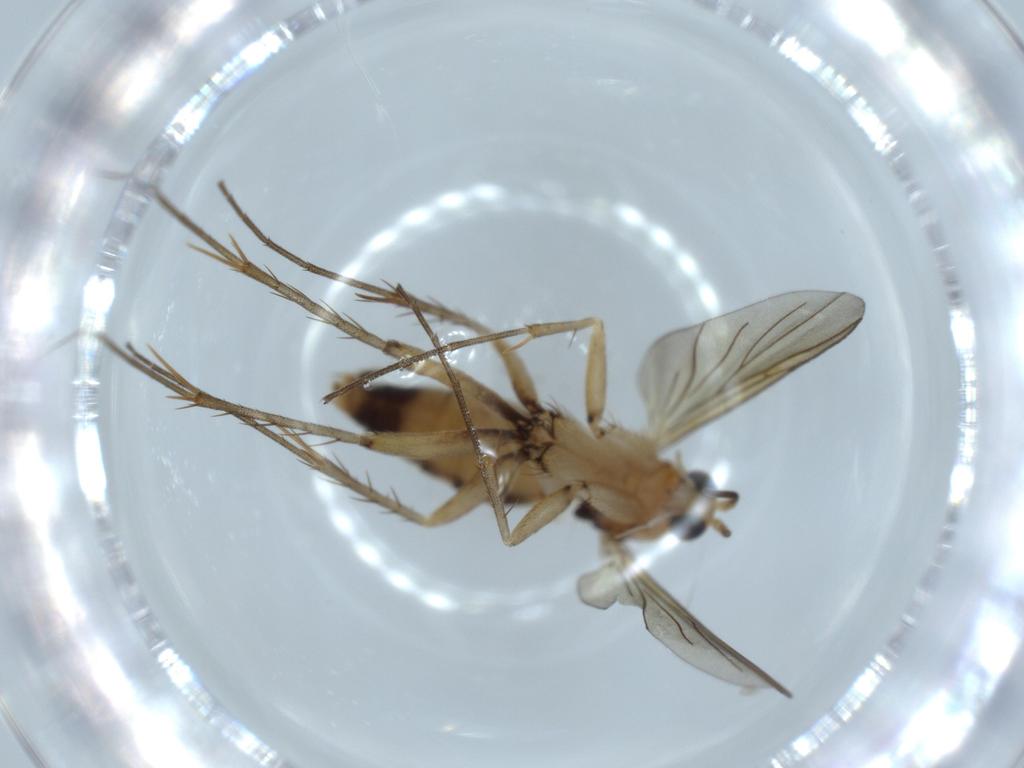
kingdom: Animalia
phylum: Arthropoda
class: Insecta
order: Diptera
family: Mycetophilidae
